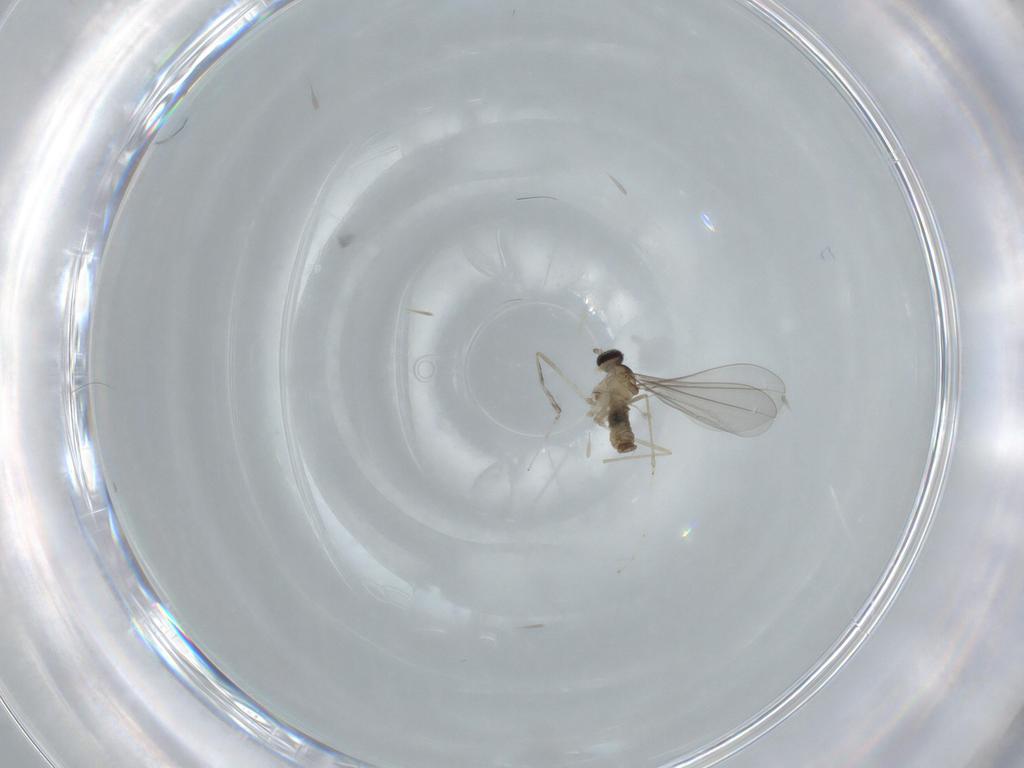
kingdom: Animalia
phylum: Arthropoda
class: Insecta
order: Diptera
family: Cecidomyiidae
